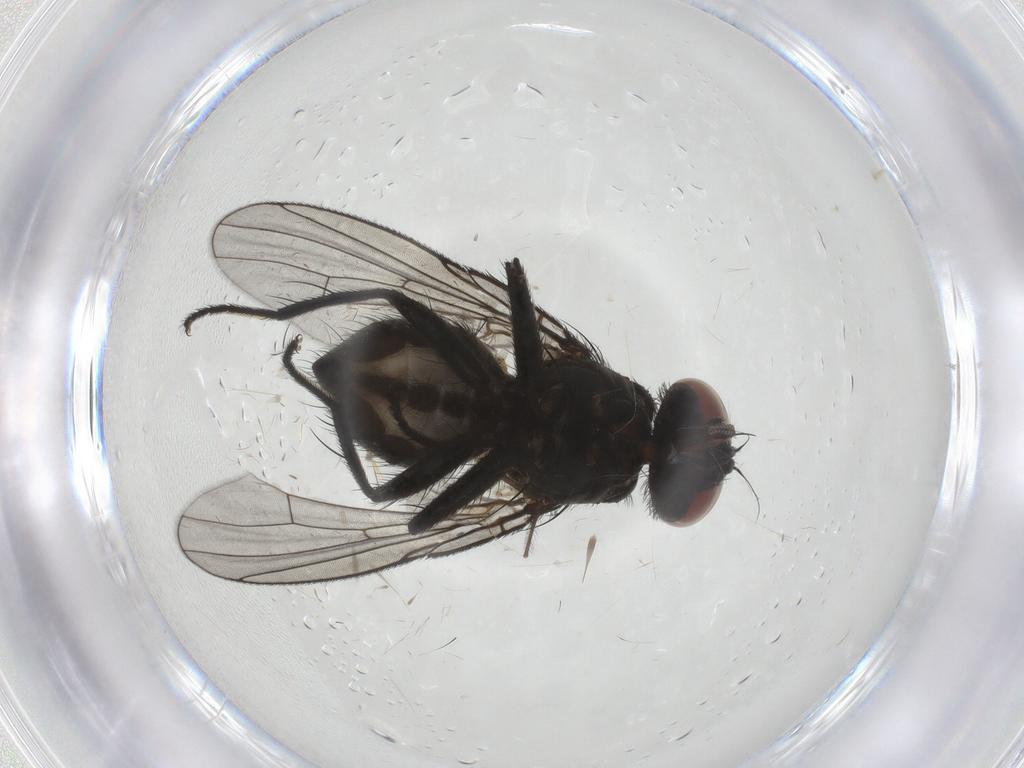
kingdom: Animalia
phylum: Arthropoda
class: Insecta
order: Diptera
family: Muscidae
